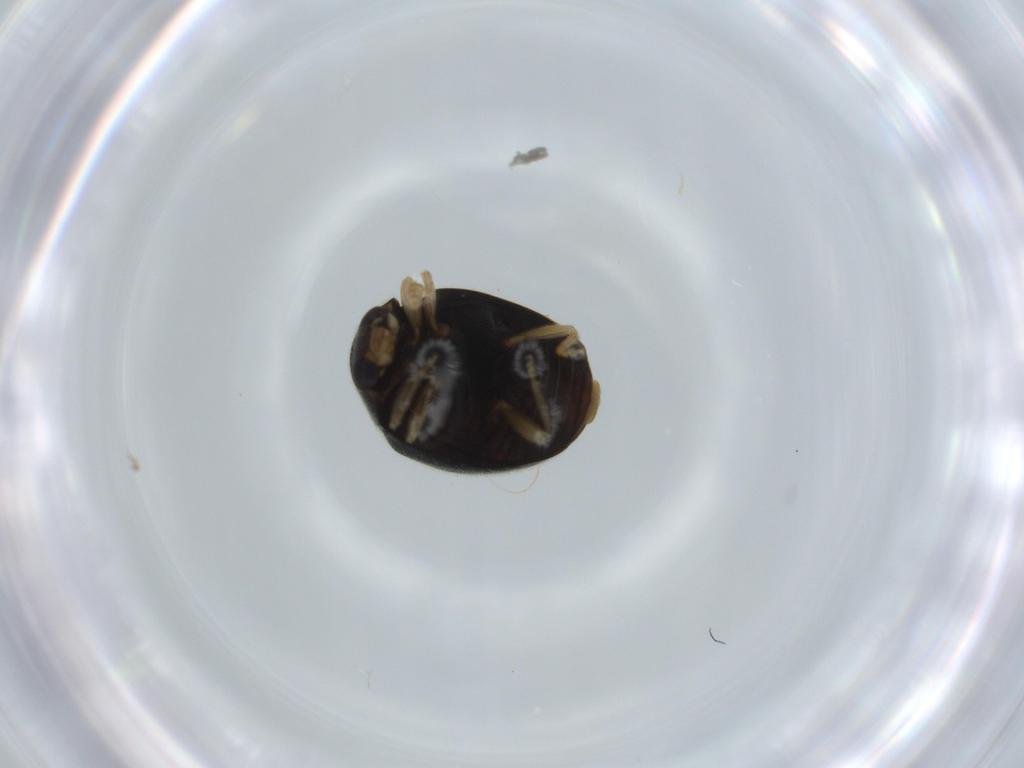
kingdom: Animalia
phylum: Arthropoda
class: Insecta
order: Coleoptera
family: Coccinellidae
